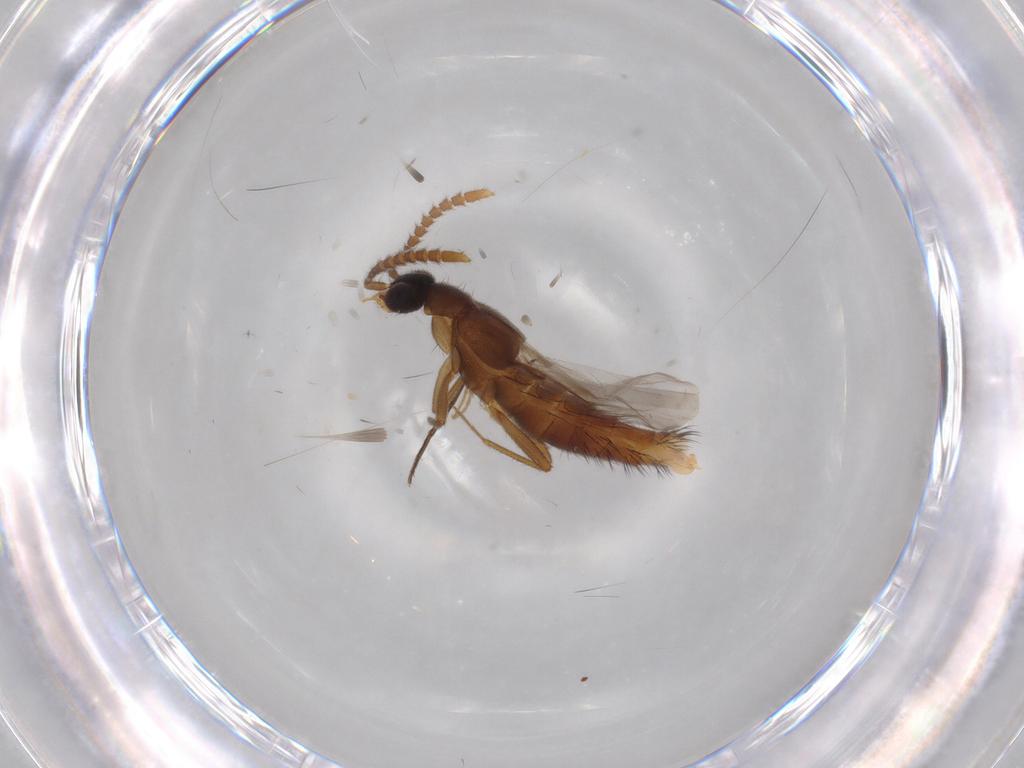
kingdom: Animalia
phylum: Arthropoda
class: Insecta
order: Coleoptera
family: Staphylinidae
